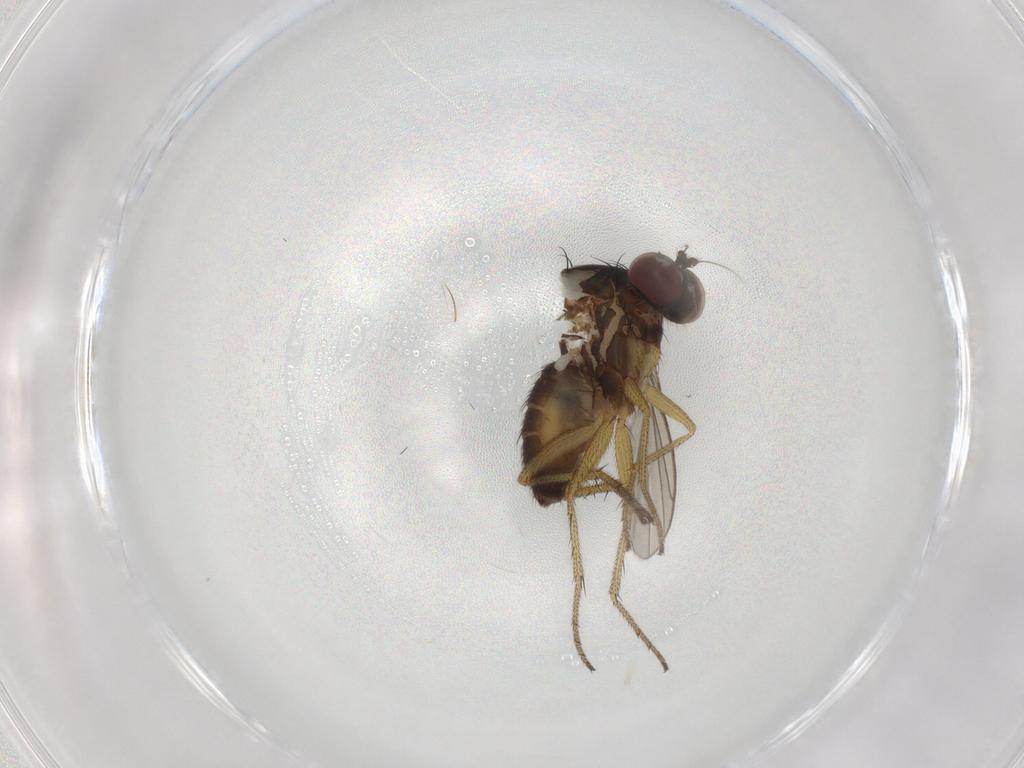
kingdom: Animalia
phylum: Arthropoda
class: Insecta
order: Diptera
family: Dolichopodidae
